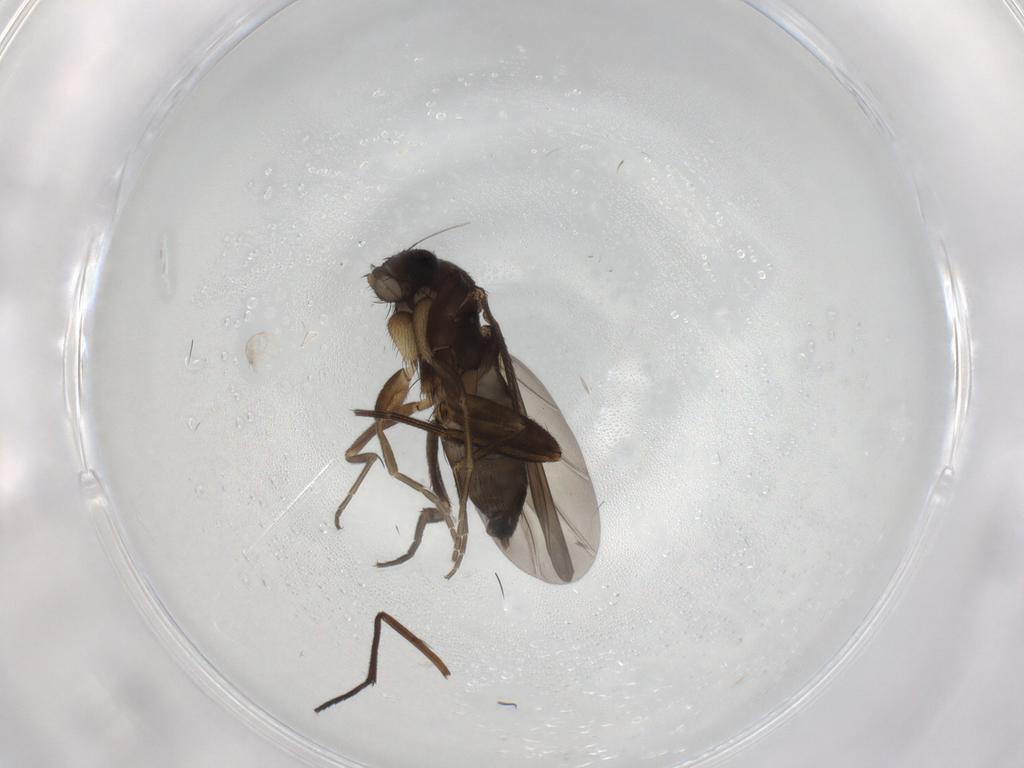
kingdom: Animalia
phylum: Arthropoda
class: Insecta
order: Diptera
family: Phoridae
